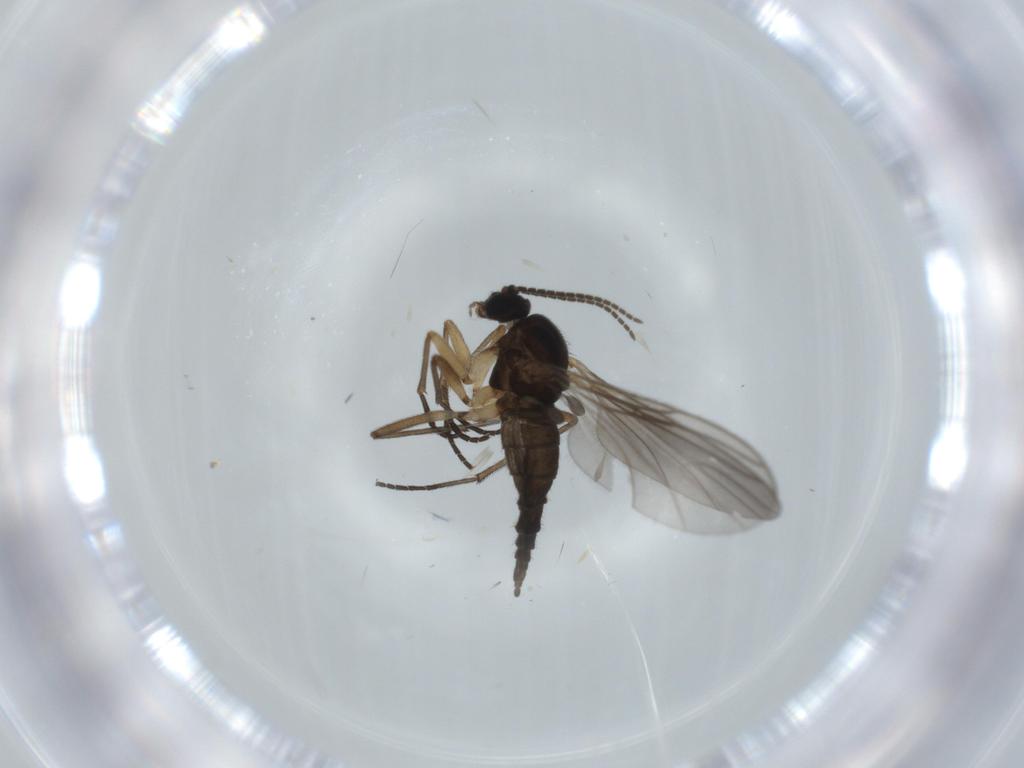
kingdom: Animalia
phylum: Arthropoda
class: Insecta
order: Diptera
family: Sciaridae
